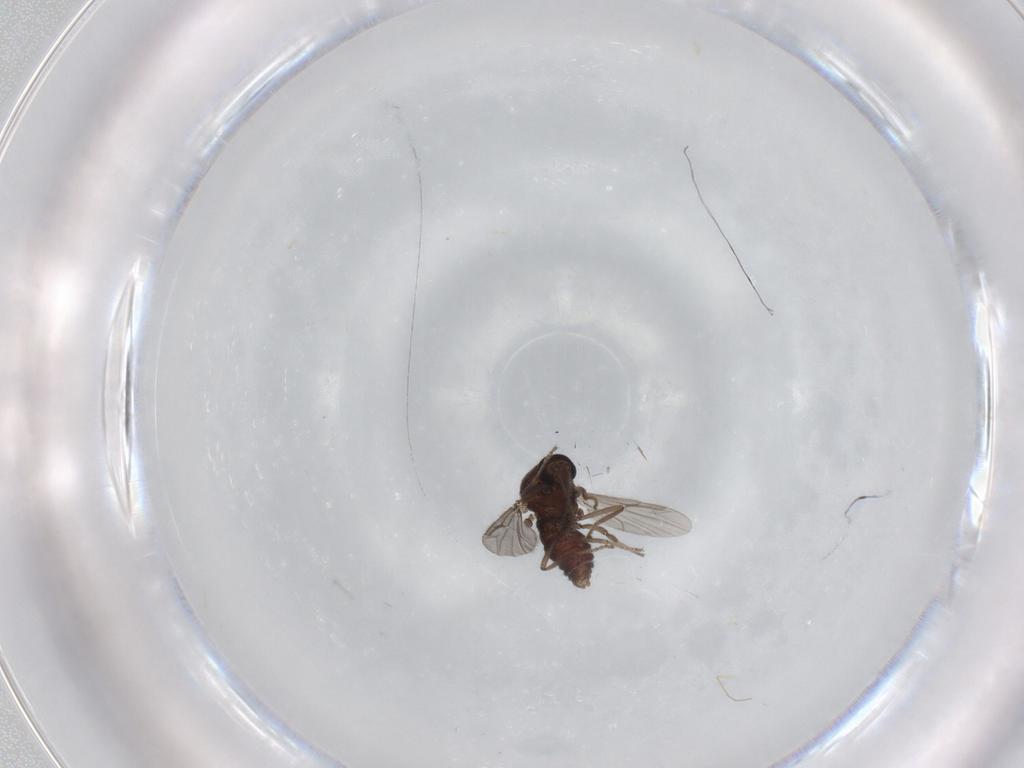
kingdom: Animalia
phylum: Arthropoda
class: Insecta
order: Diptera
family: Ceratopogonidae
